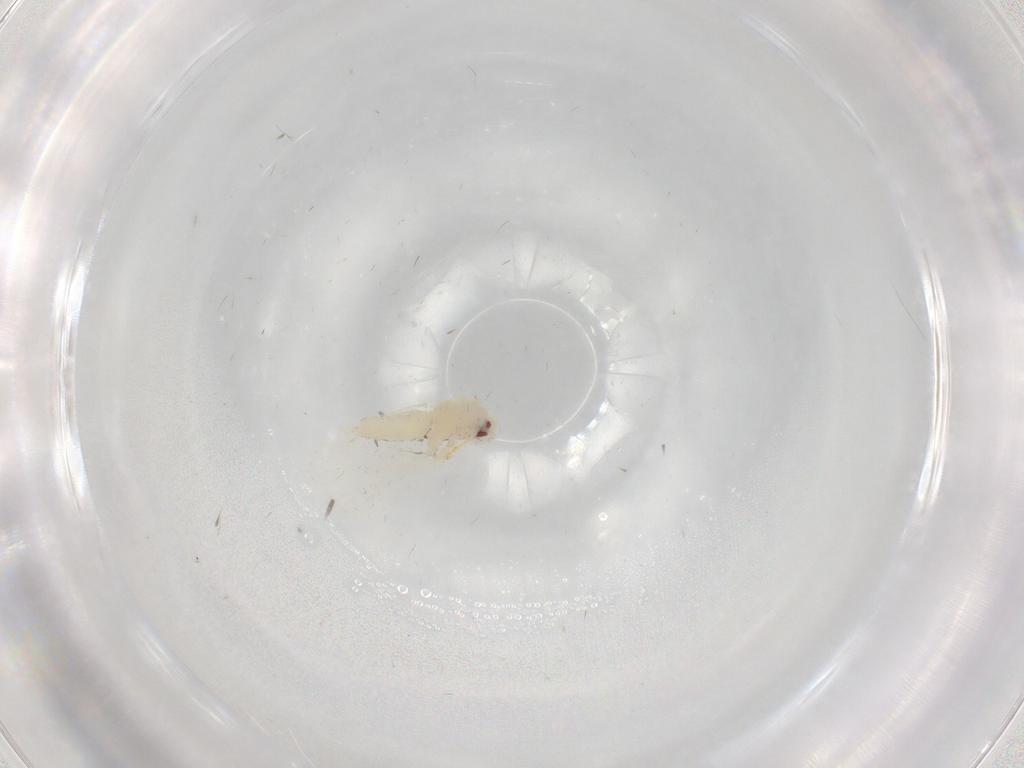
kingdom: Animalia
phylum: Arthropoda
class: Insecta
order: Hemiptera
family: Aleyrodidae
